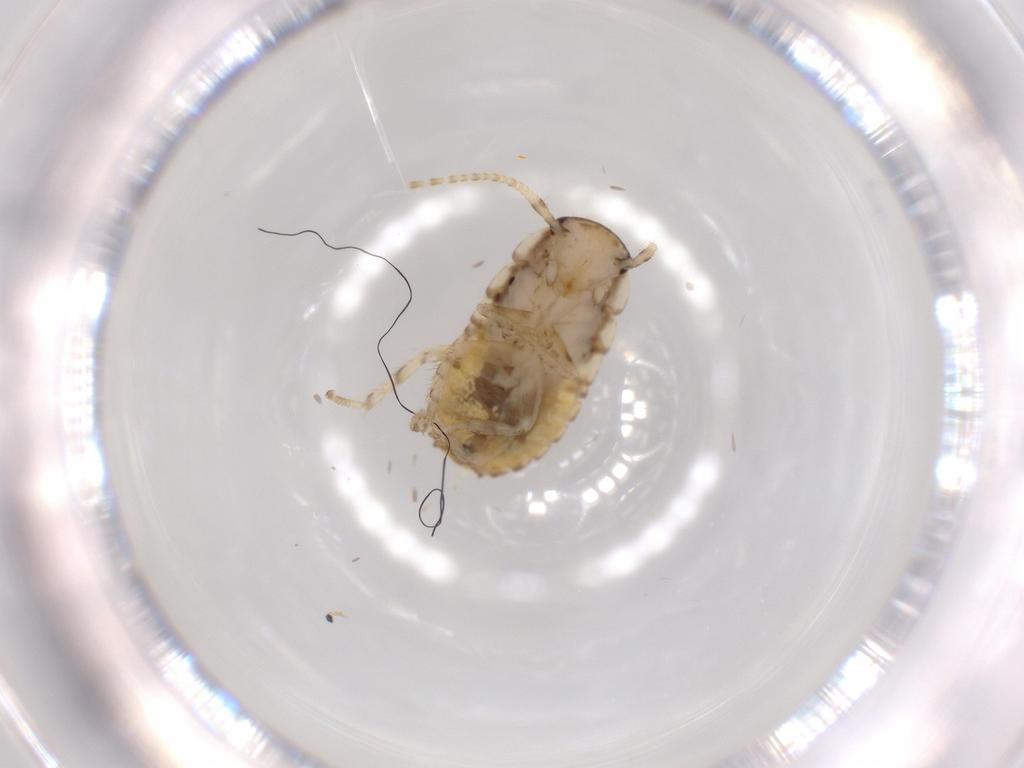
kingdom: Animalia
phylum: Arthropoda
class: Insecta
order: Blattodea
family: Ectobiidae
